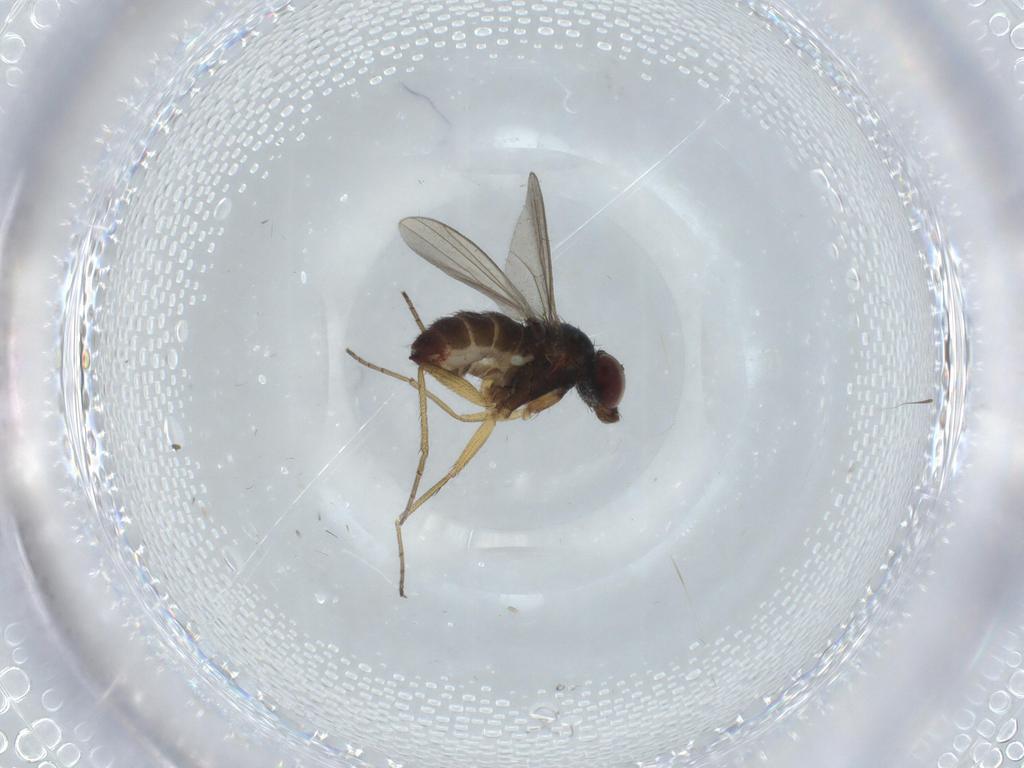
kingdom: Animalia
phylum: Arthropoda
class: Insecta
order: Diptera
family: Dolichopodidae
